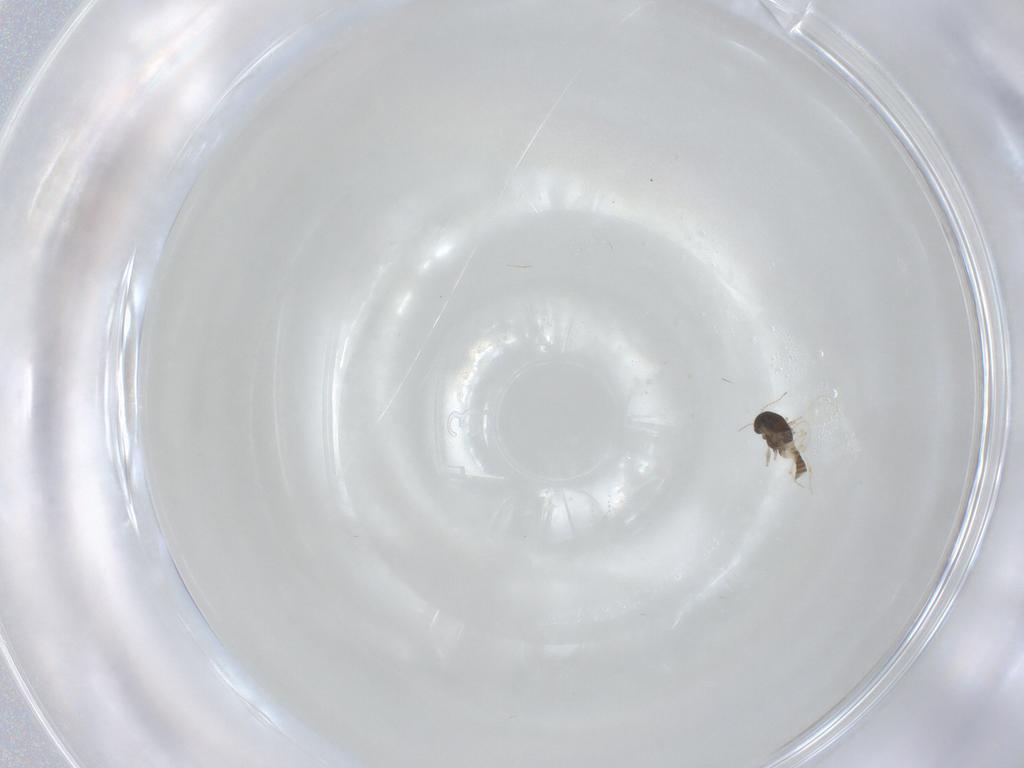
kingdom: Animalia
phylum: Arthropoda
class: Insecta
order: Diptera
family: Chironomidae
